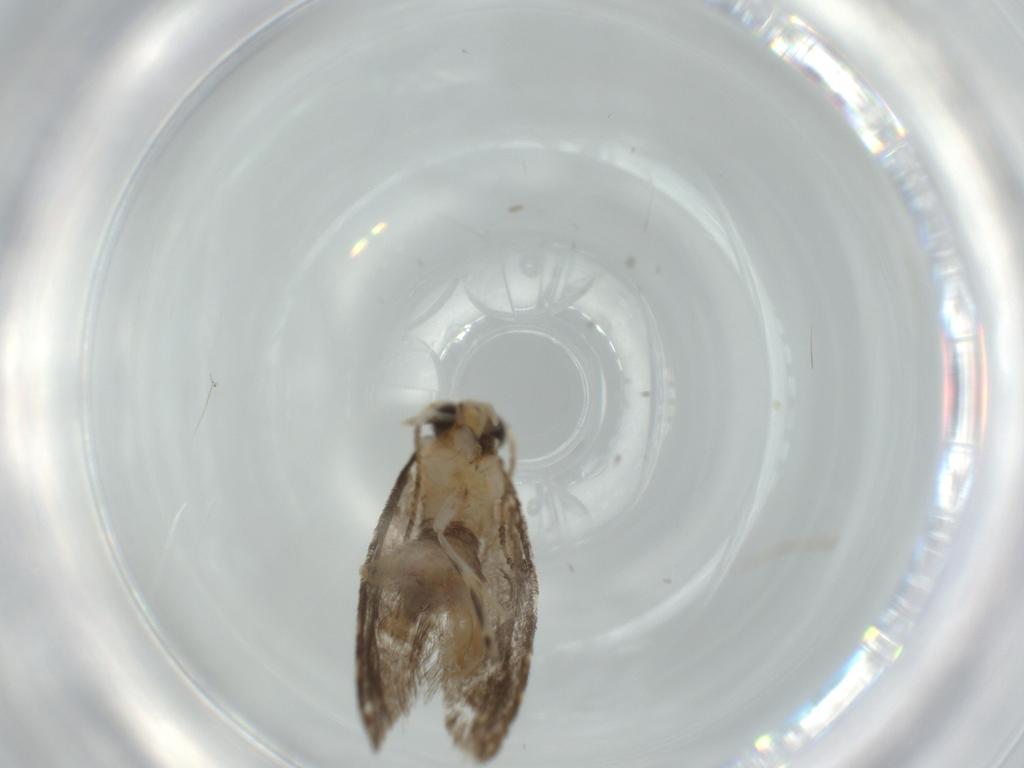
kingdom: Animalia
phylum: Arthropoda
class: Insecta
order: Lepidoptera
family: Tineidae
